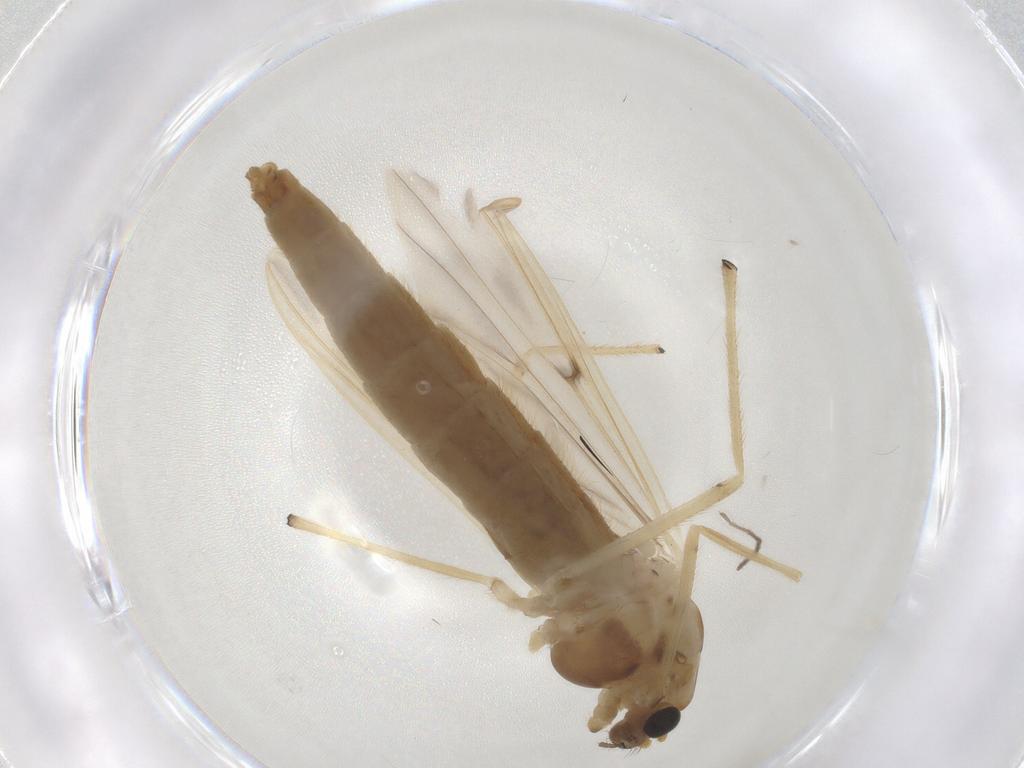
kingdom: Animalia
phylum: Arthropoda
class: Insecta
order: Diptera
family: Chironomidae
